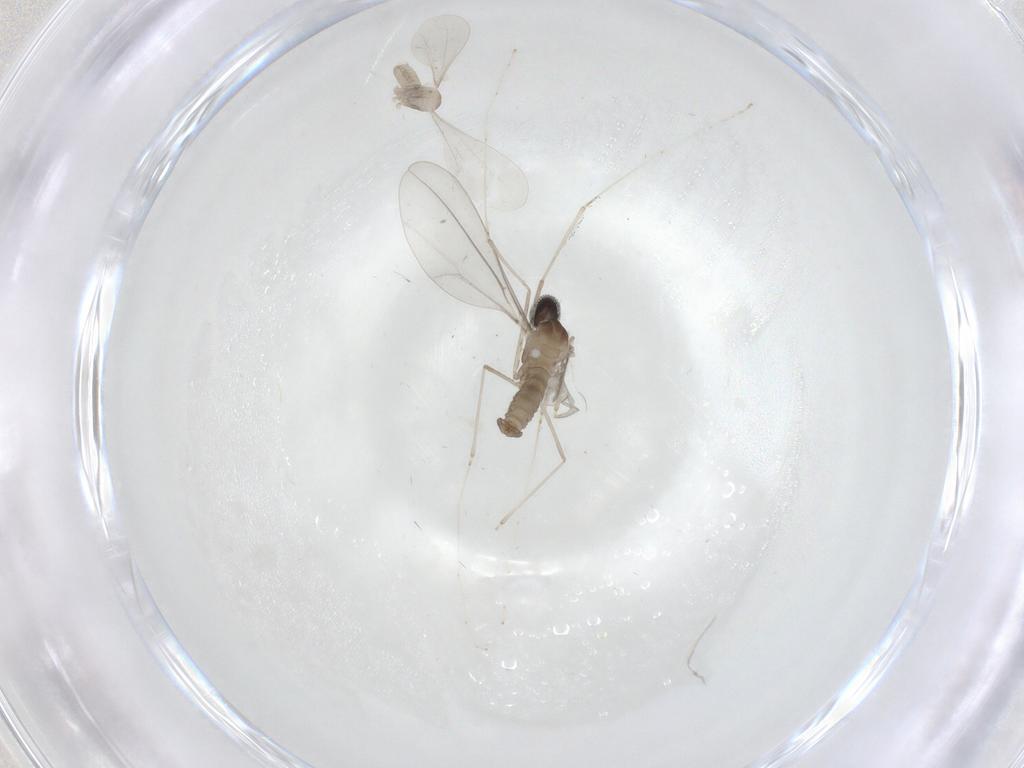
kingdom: Animalia
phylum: Arthropoda
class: Insecta
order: Diptera
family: Cecidomyiidae
